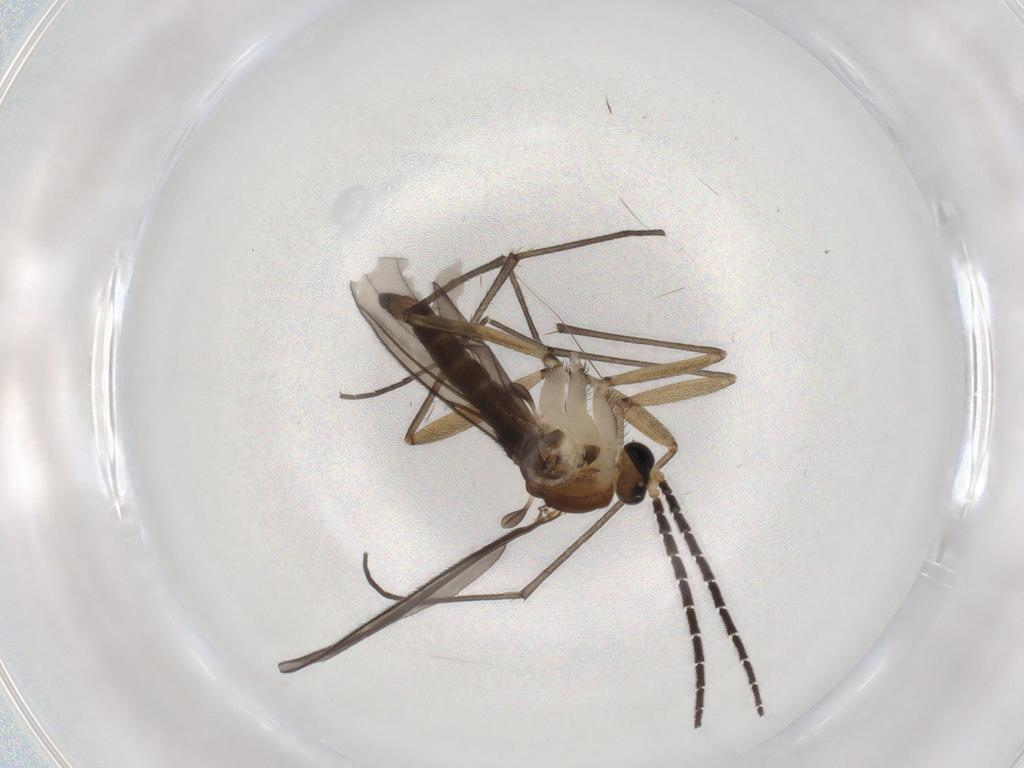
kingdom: Animalia
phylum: Arthropoda
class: Insecta
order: Diptera
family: Sciaridae
